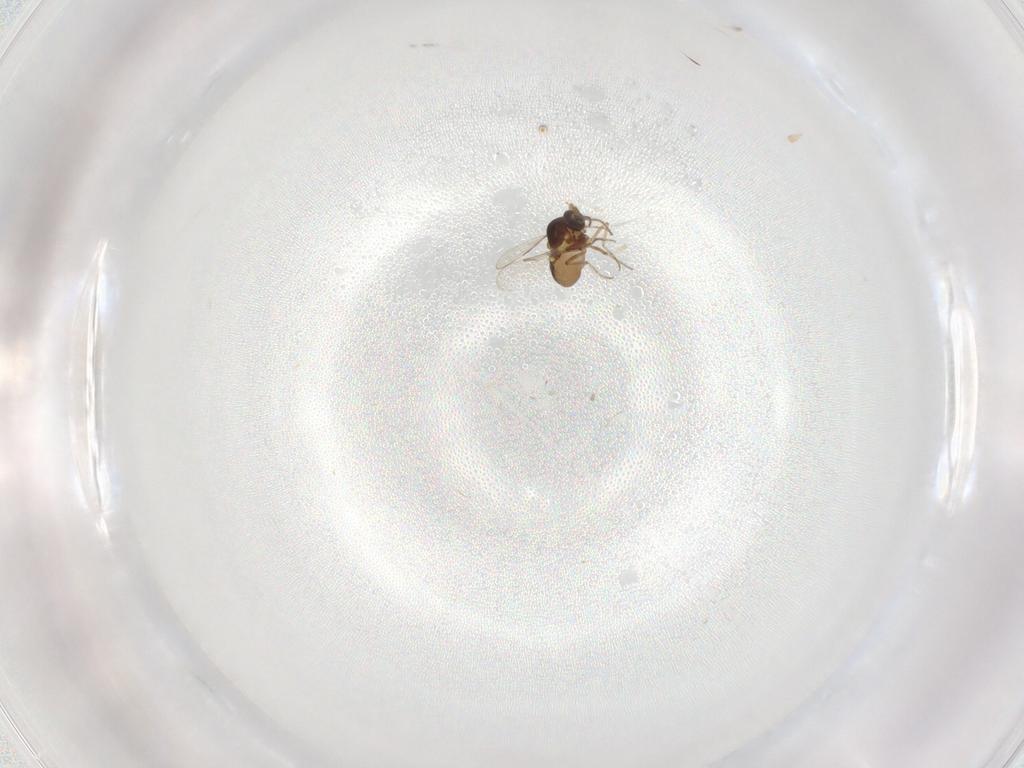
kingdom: Animalia
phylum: Arthropoda
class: Insecta
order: Diptera
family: Ceratopogonidae
